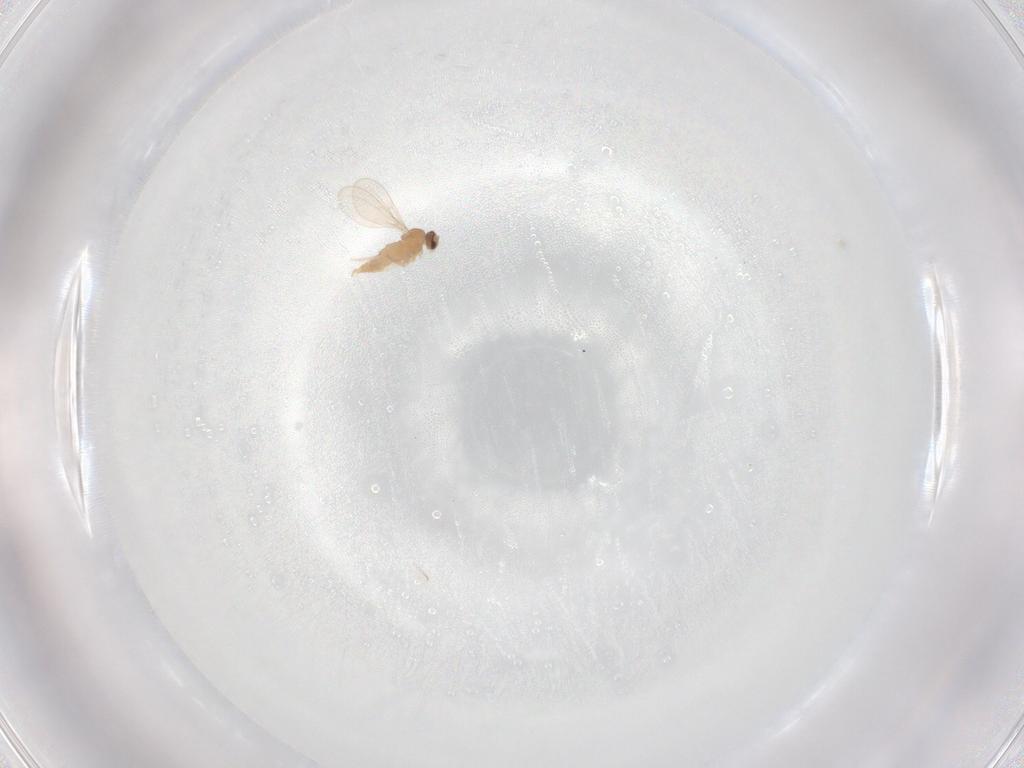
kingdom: Animalia
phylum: Arthropoda
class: Insecta
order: Diptera
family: Cecidomyiidae
